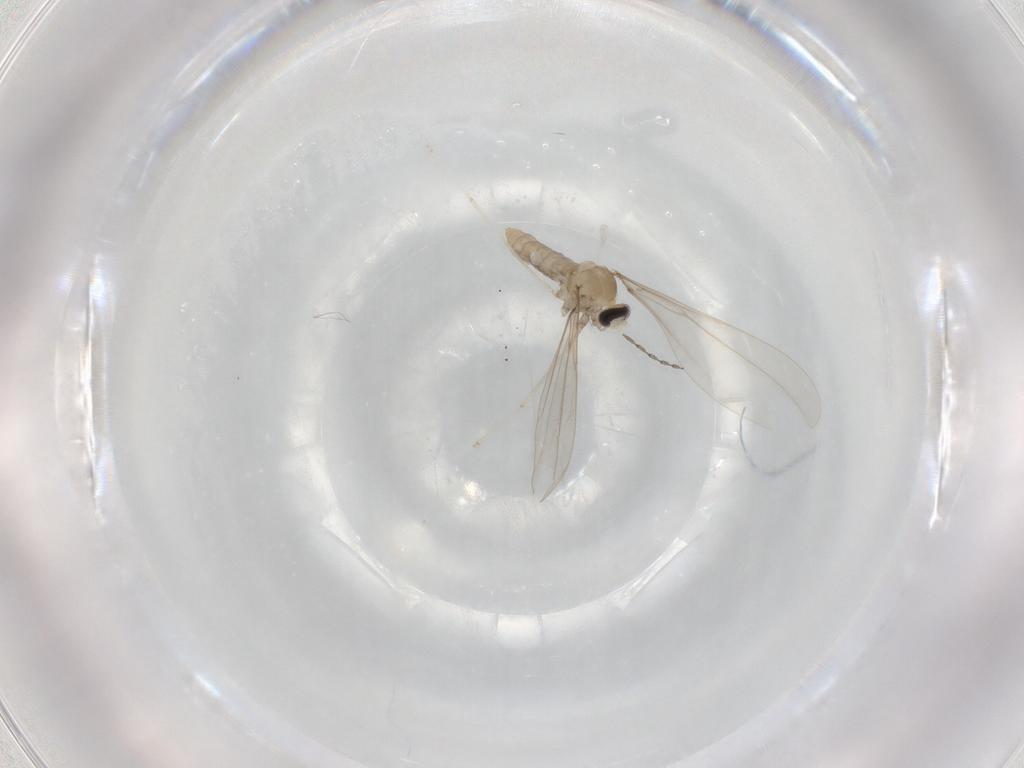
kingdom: Animalia
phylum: Arthropoda
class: Insecta
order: Diptera
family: Cecidomyiidae
